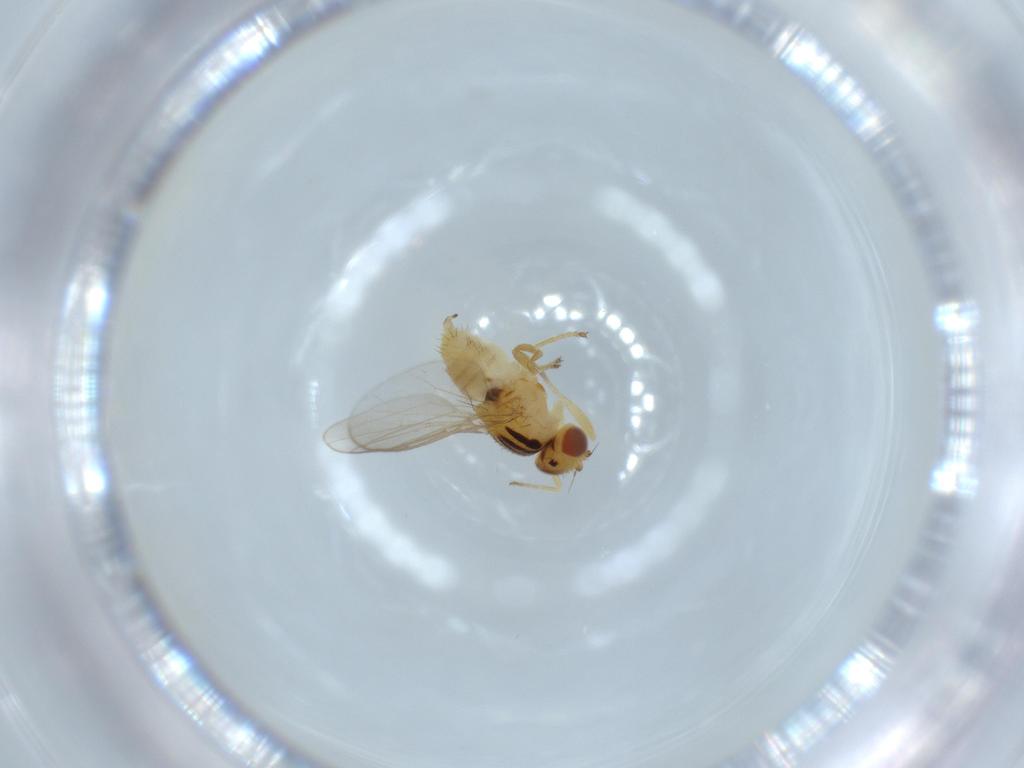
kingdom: Animalia
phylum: Arthropoda
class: Insecta
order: Diptera
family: Chloropidae
